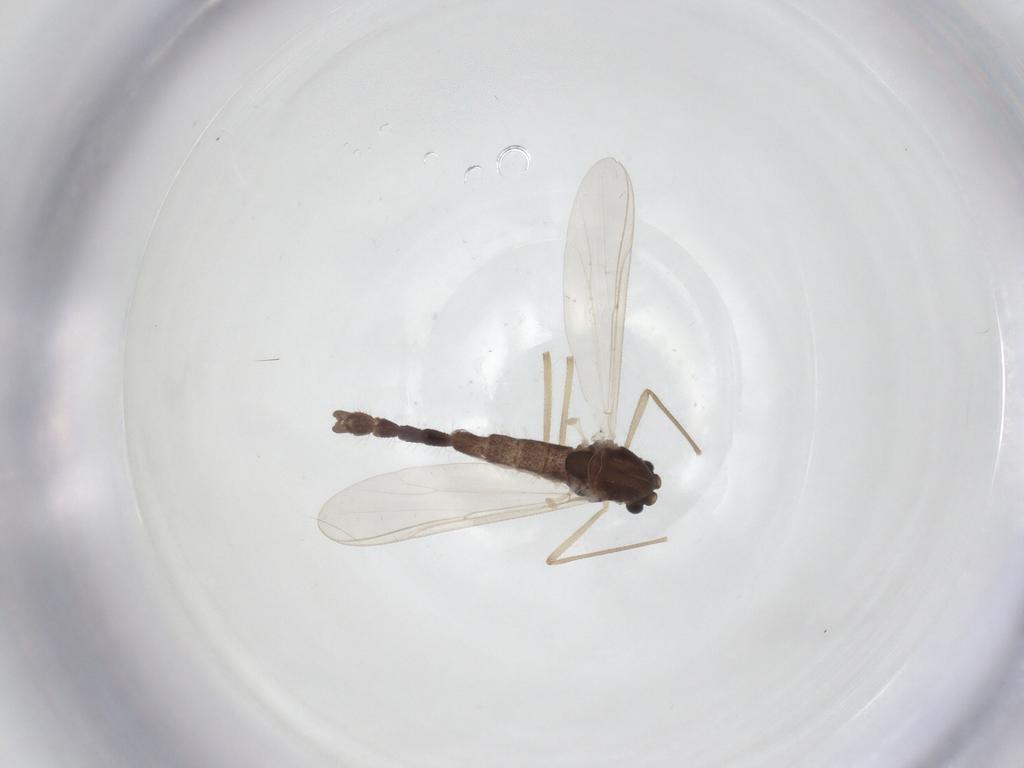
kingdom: Animalia
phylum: Arthropoda
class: Insecta
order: Diptera
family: Chironomidae
